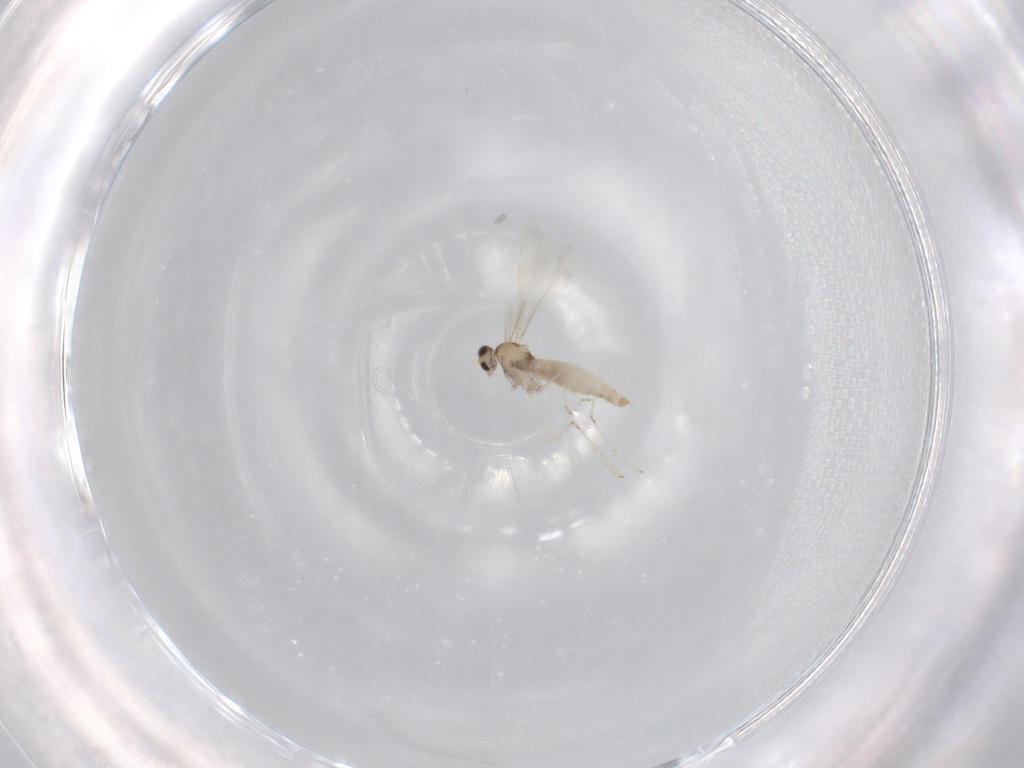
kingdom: Animalia
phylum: Arthropoda
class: Insecta
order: Diptera
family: Cecidomyiidae
